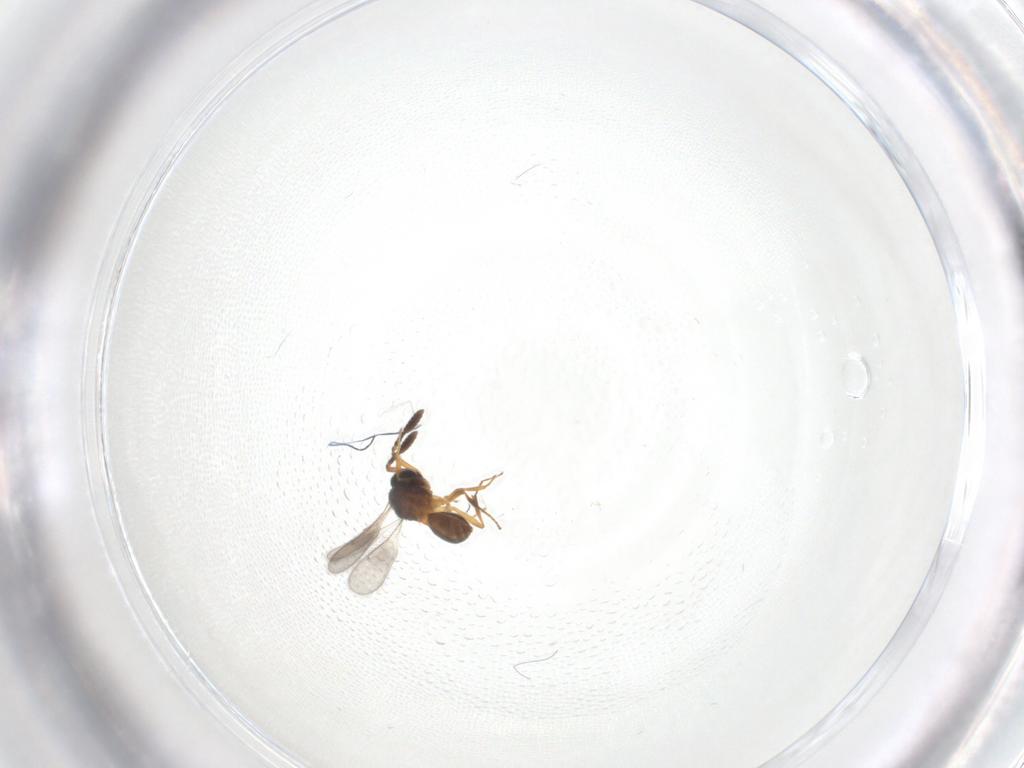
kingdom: Animalia
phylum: Arthropoda
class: Insecta
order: Hymenoptera
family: Scelionidae
